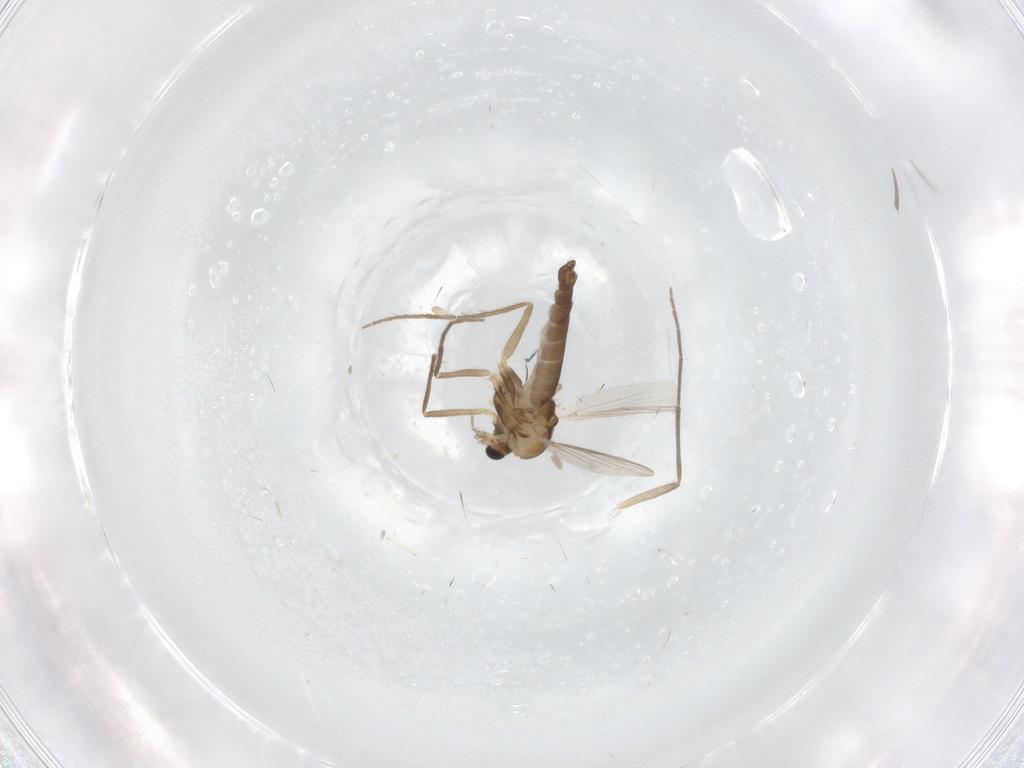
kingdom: Animalia
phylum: Arthropoda
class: Insecta
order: Diptera
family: Chironomidae
